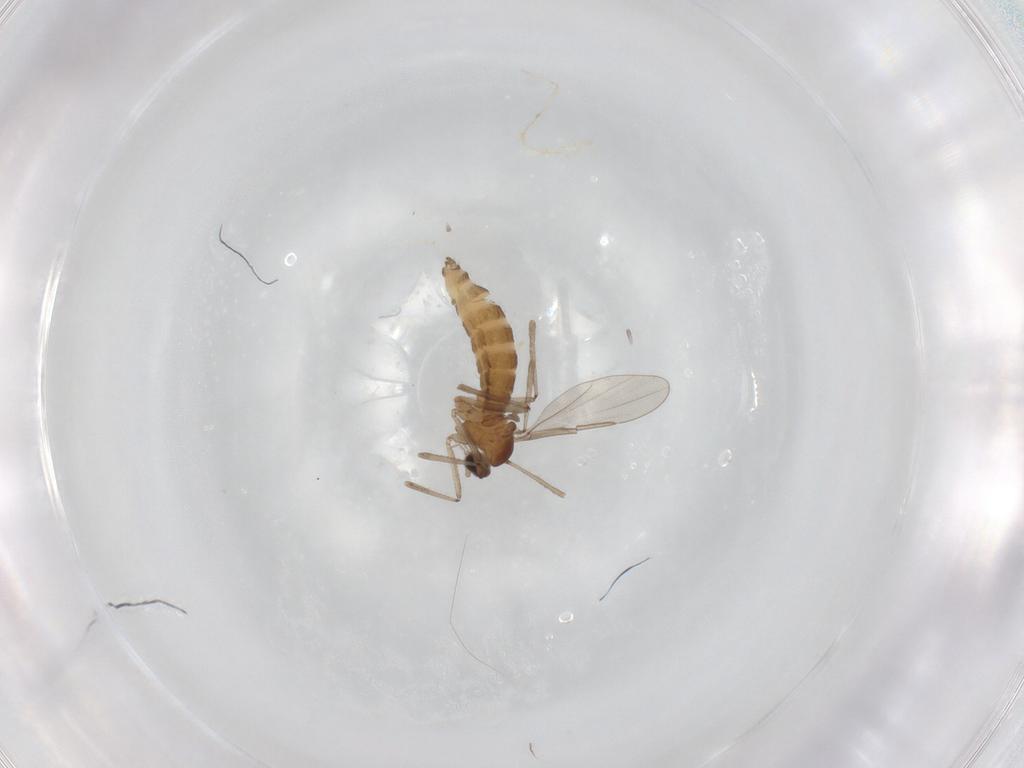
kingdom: Animalia
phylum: Arthropoda
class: Insecta
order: Diptera
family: Cecidomyiidae
